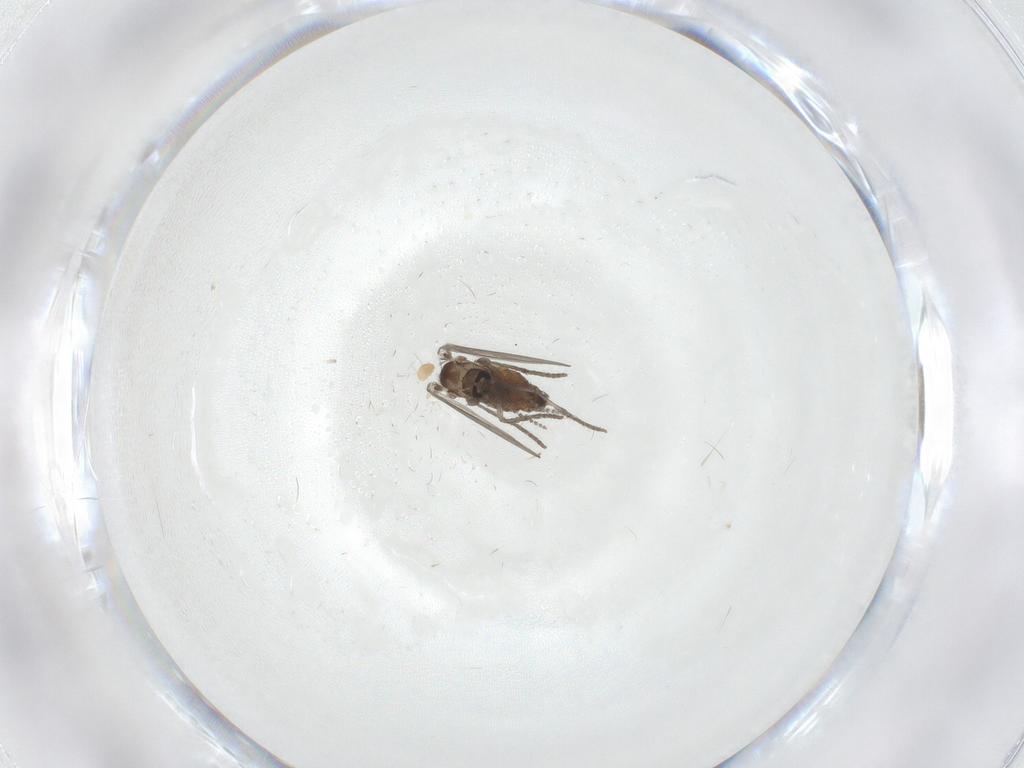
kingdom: Animalia
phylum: Arthropoda
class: Insecta
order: Diptera
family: Psychodidae
